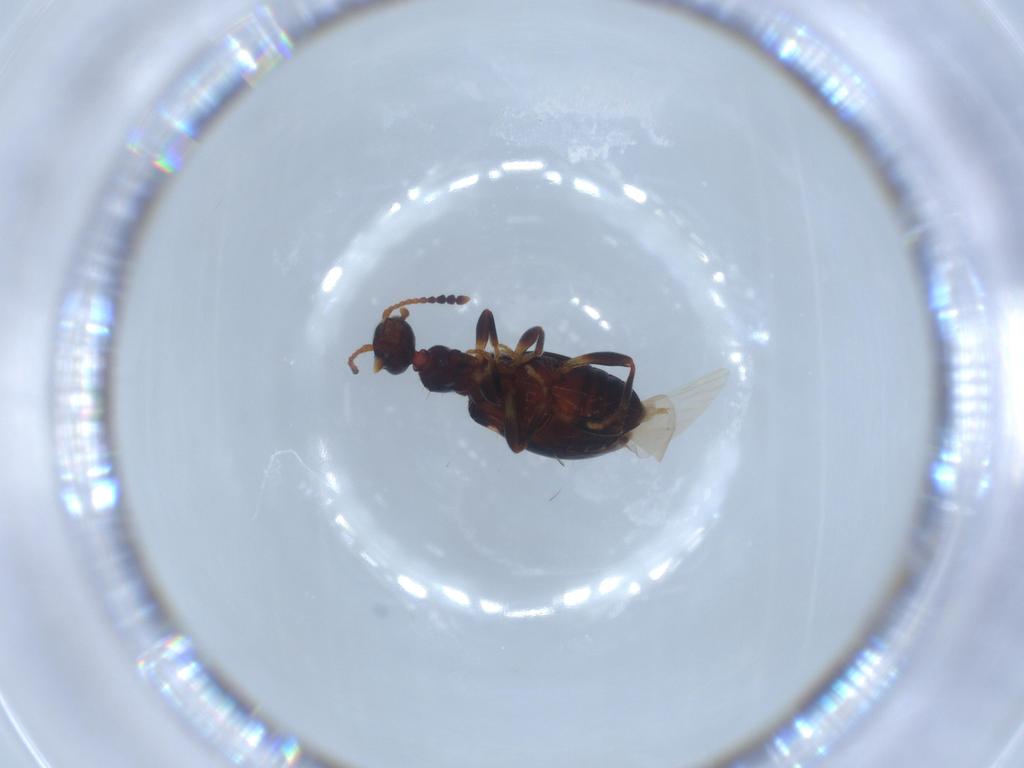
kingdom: Animalia
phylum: Arthropoda
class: Insecta
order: Coleoptera
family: Anthicidae
